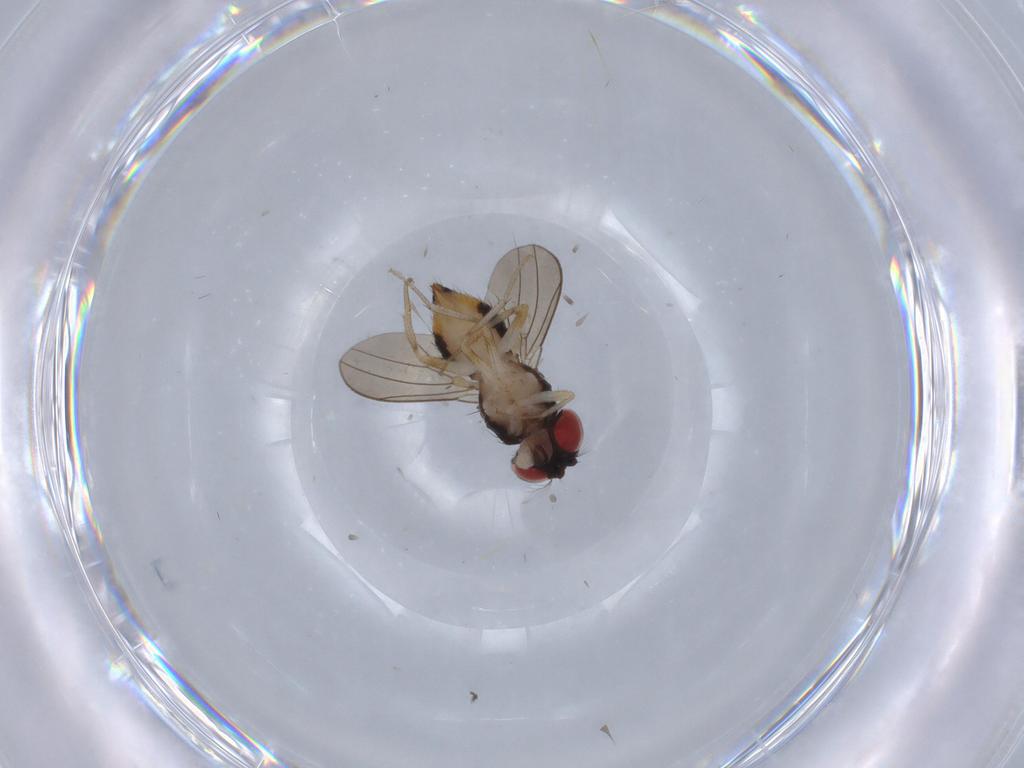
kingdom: Animalia
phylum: Arthropoda
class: Insecta
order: Diptera
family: Drosophilidae
